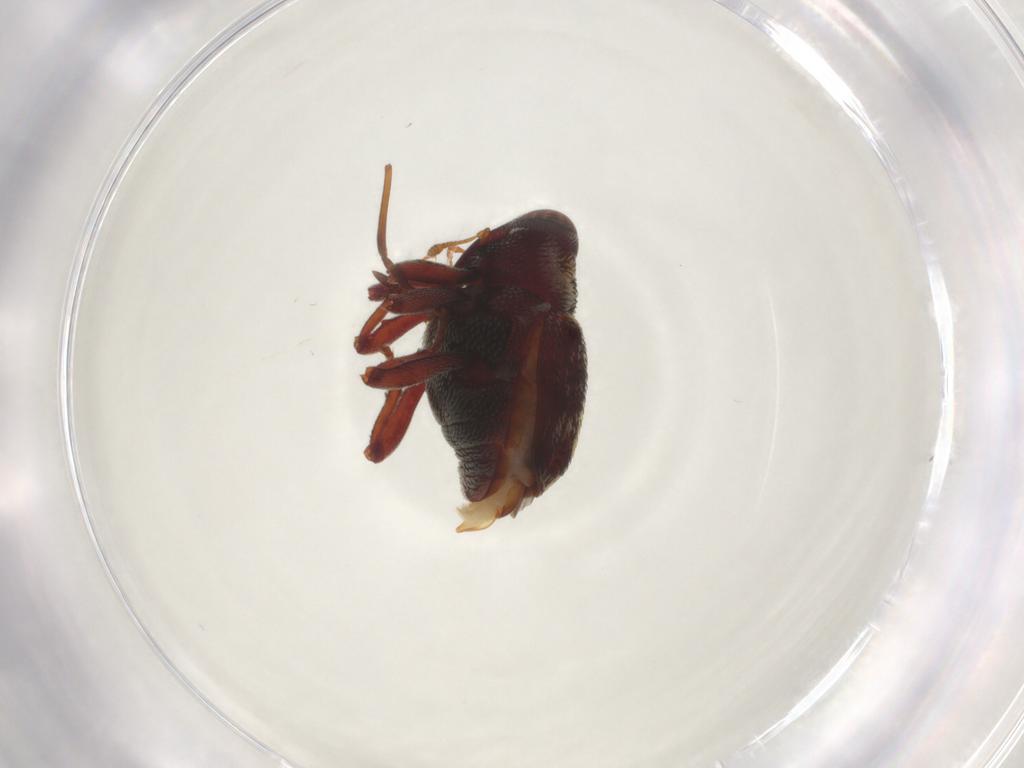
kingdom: Animalia
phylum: Arthropoda
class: Insecta
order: Coleoptera
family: Curculionidae
